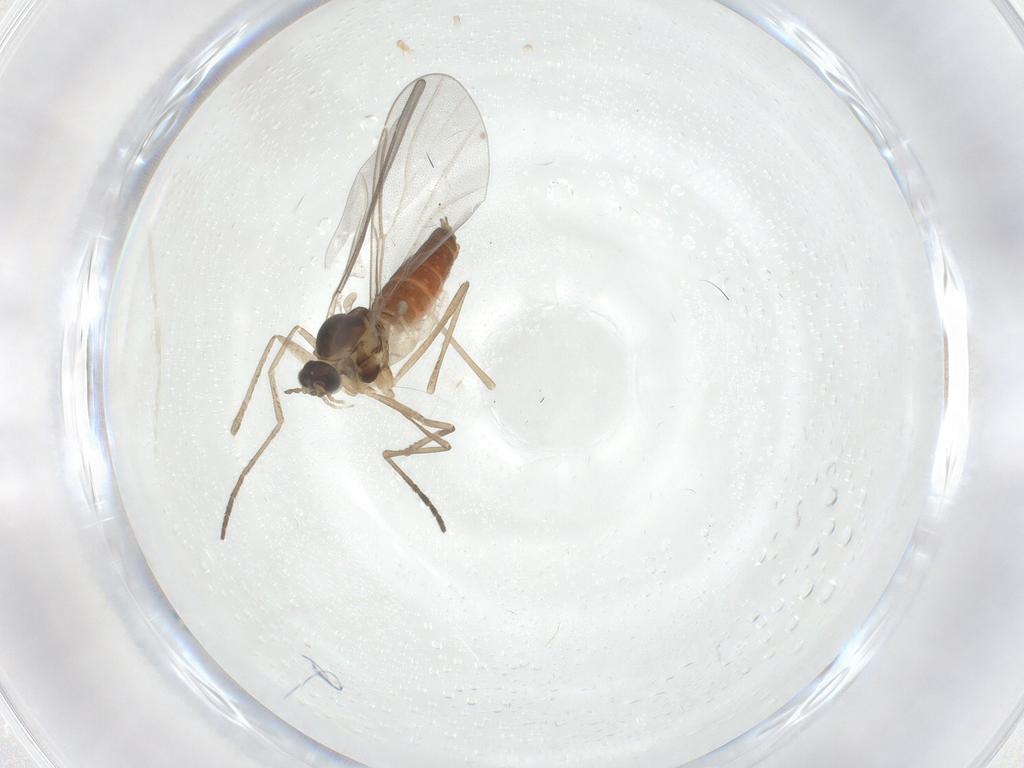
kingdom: Animalia
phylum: Arthropoda
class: Insecta
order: Diptera
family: Cecidomyiidae
